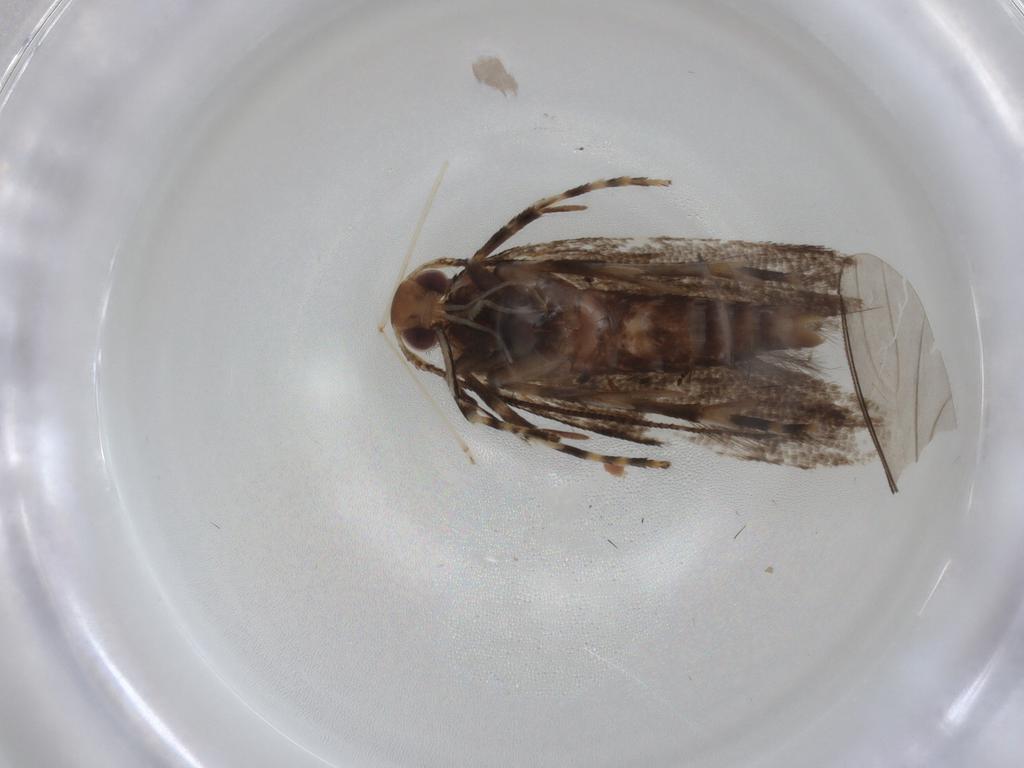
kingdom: Animalia
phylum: Arthropoda
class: Insecta
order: Lepidoptera
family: Cosmopterigidae
